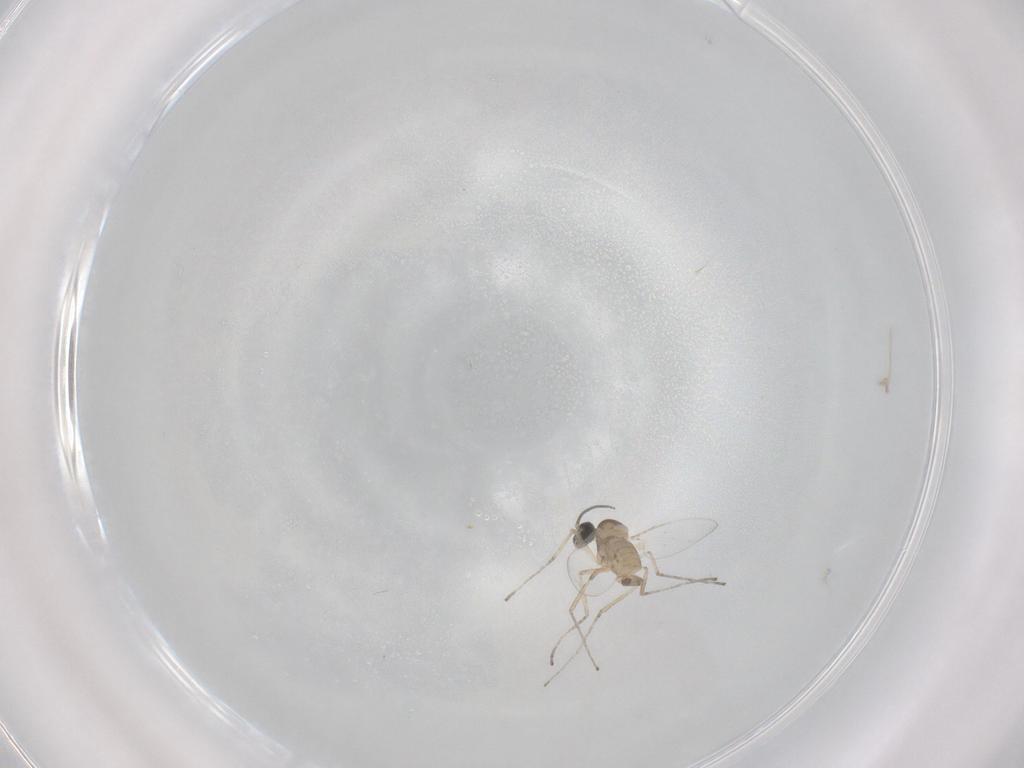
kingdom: Animalia
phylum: Arthropoda
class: Insecta
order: Diptera
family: Cecidomyiidae
